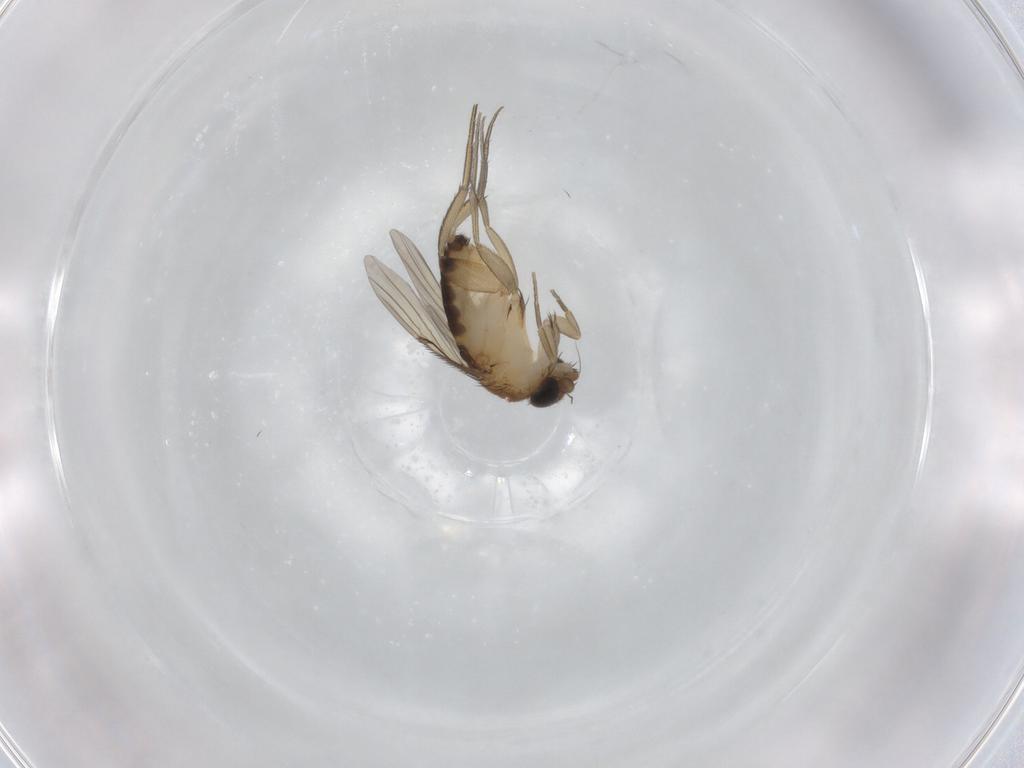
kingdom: Animalia
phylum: Arthropoda
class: Insecta
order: Diptera
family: Phoridae
